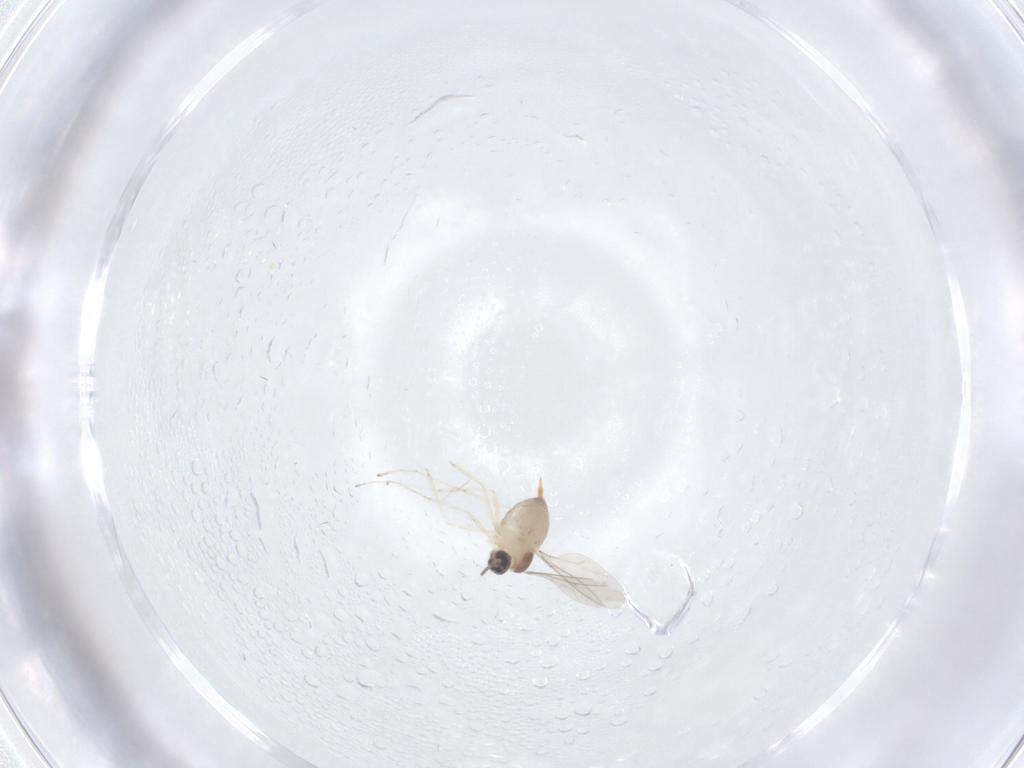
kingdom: Animalia
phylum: Arthropoda
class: Insecta
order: Diptera
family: Cecidomyiidae
